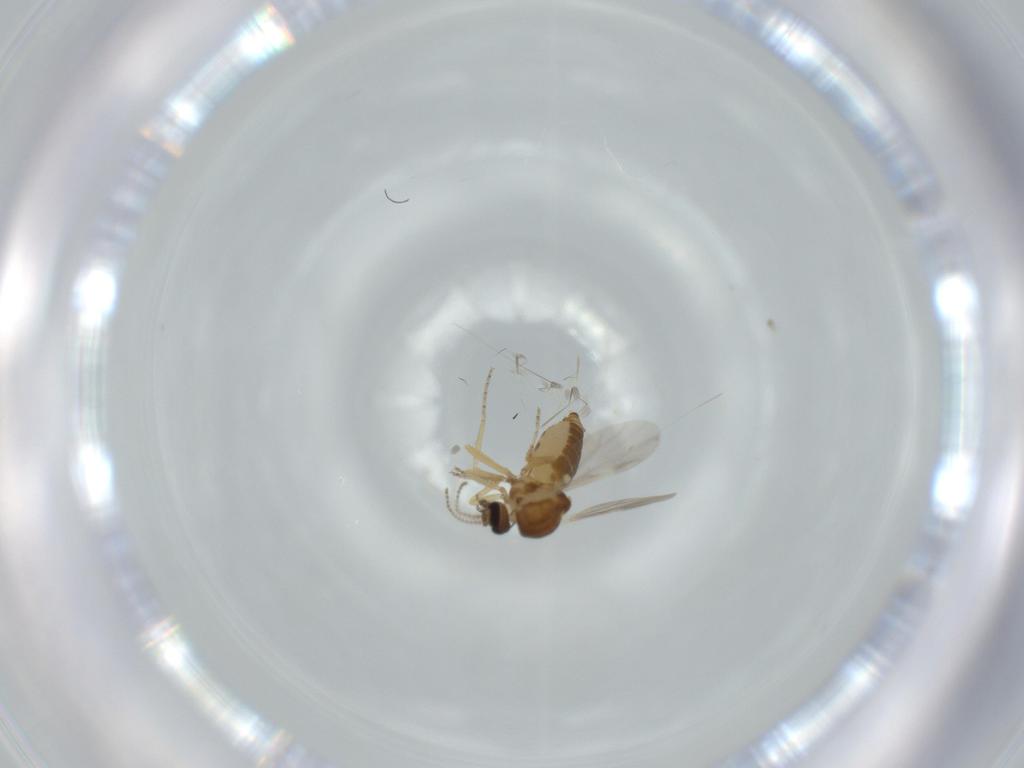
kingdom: Animalia
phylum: Arthropoda
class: Insecta
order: Diptera
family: Ceratopogonidae
